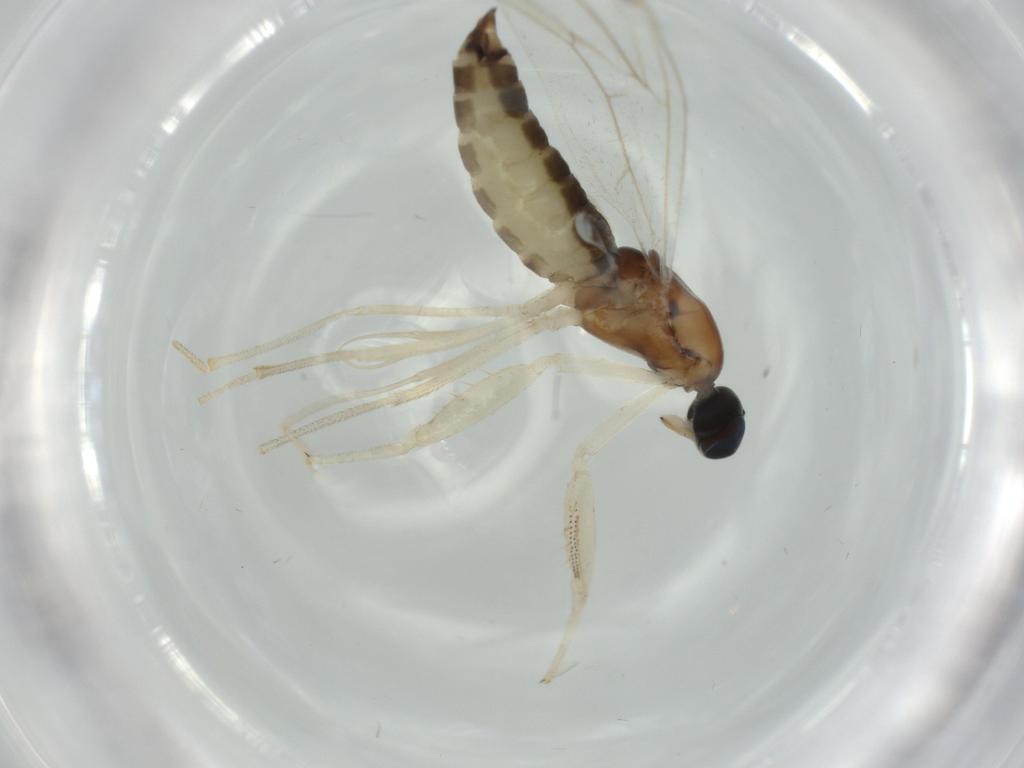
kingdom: Animalia
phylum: Arthropoda
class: Insecta
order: Diptera
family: Empididae
